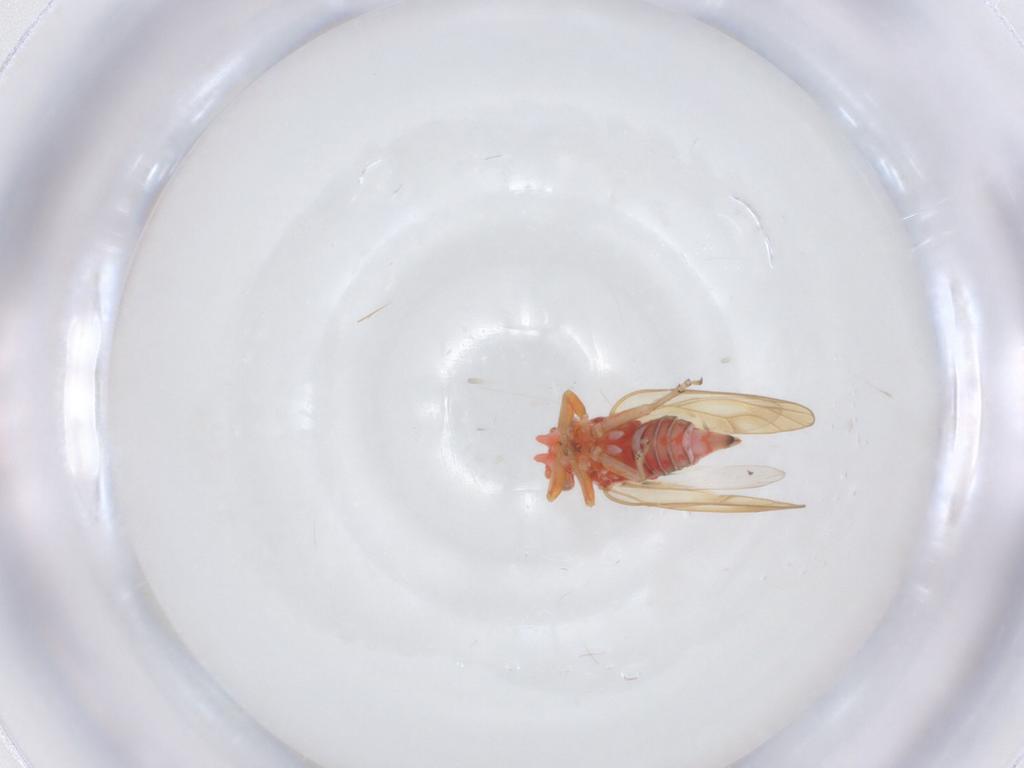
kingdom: Animalia
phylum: Arthropoda
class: Insecta
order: Hemiptera
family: Psyllidae
